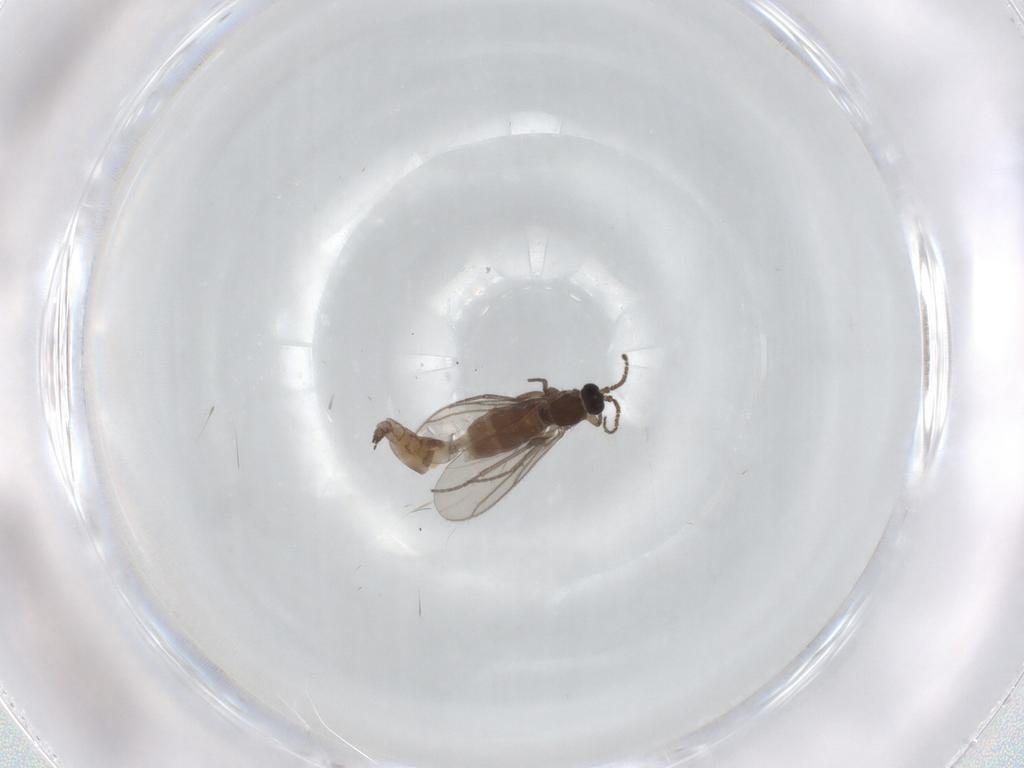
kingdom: Animalia
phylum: Arthropoda
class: Insecta
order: Diptera
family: Sciaridae
